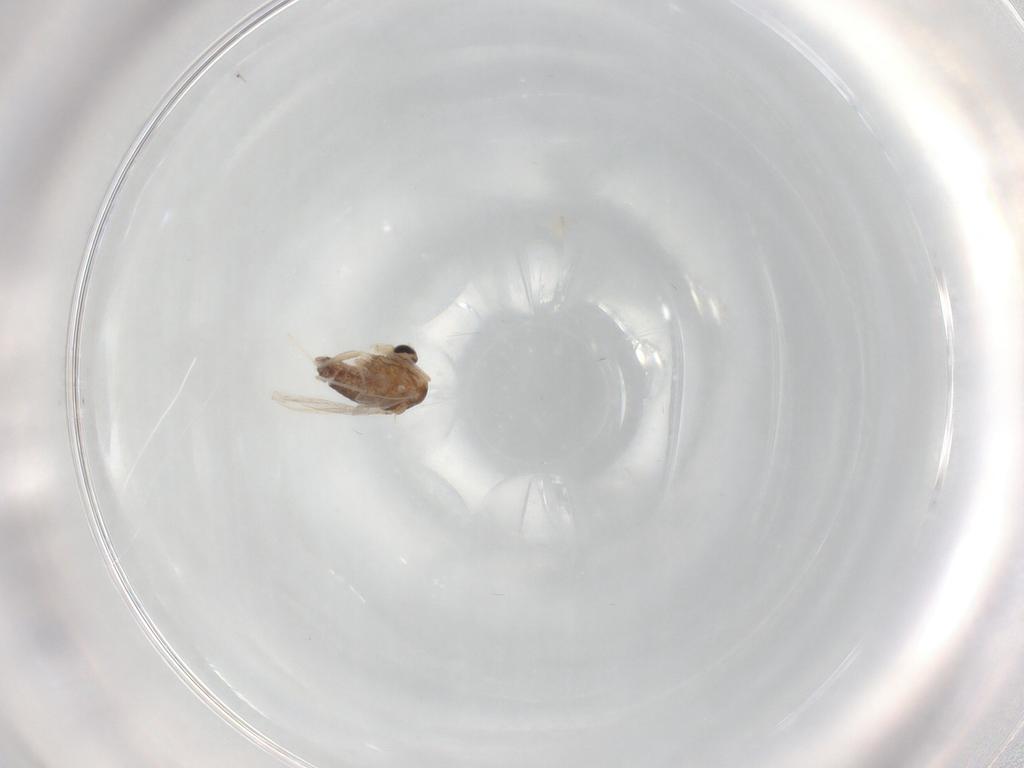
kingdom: Animalia
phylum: Arthropoda
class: Insecta
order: Diptera
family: Chironomidae
